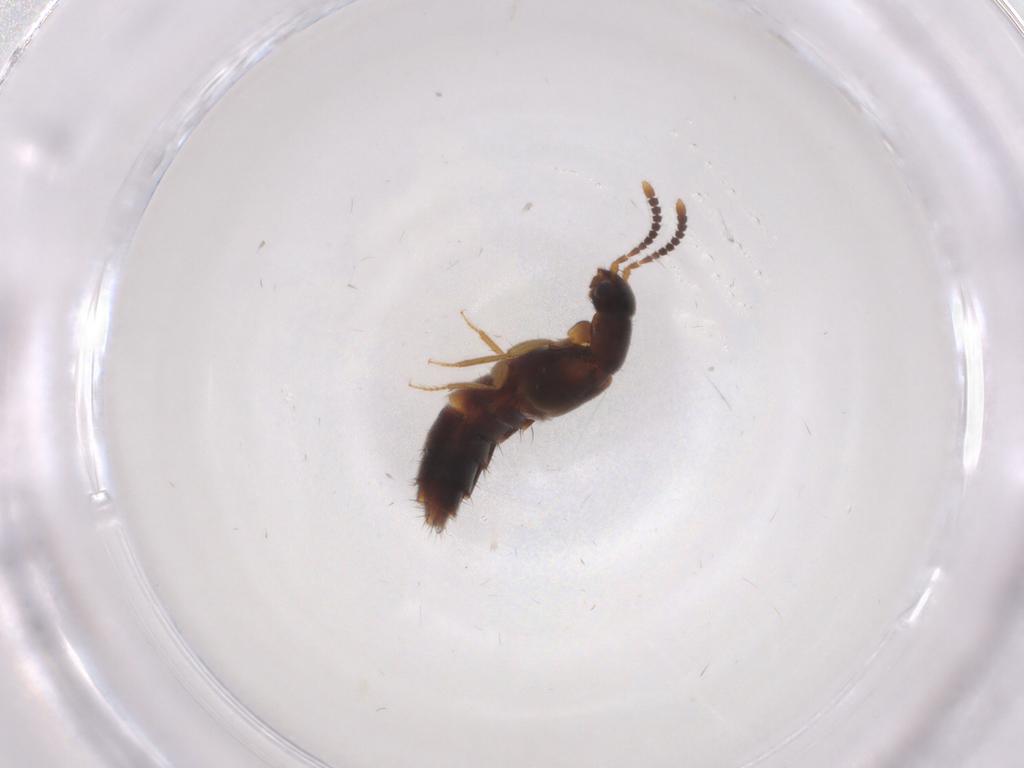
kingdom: Animalia
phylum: Arthropoda
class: Insecta
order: Coleoptera
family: Staphylinidae
